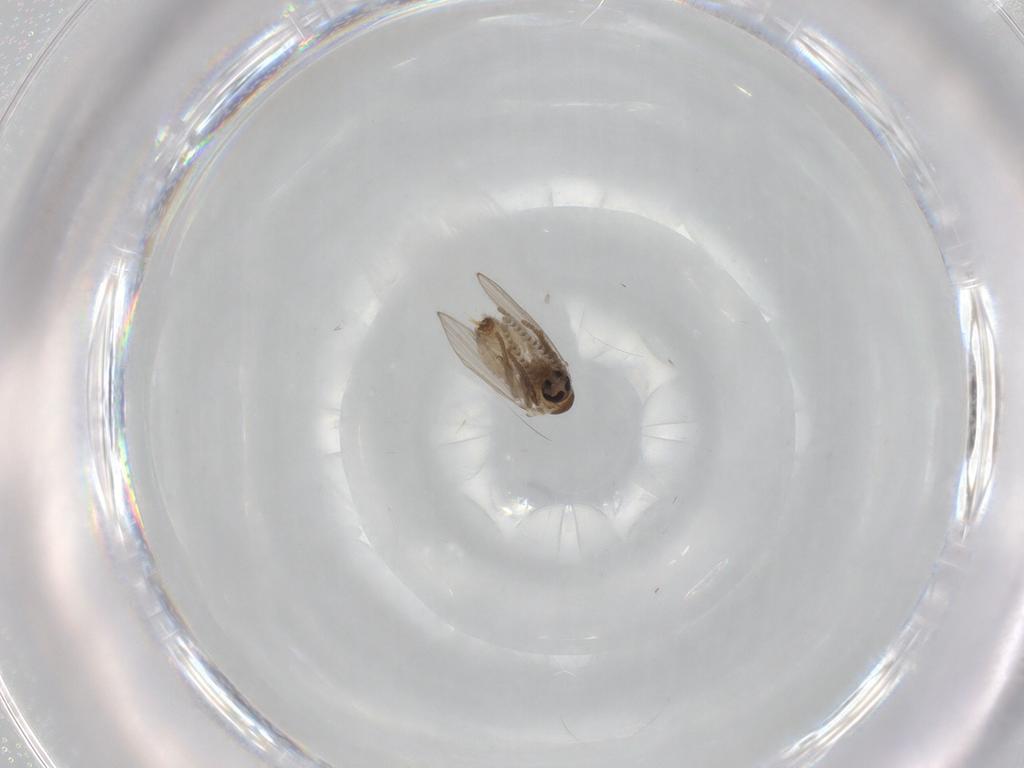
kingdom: Animalia
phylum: Arthropoda
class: Insecta
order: Diptera
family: Psychodidae
